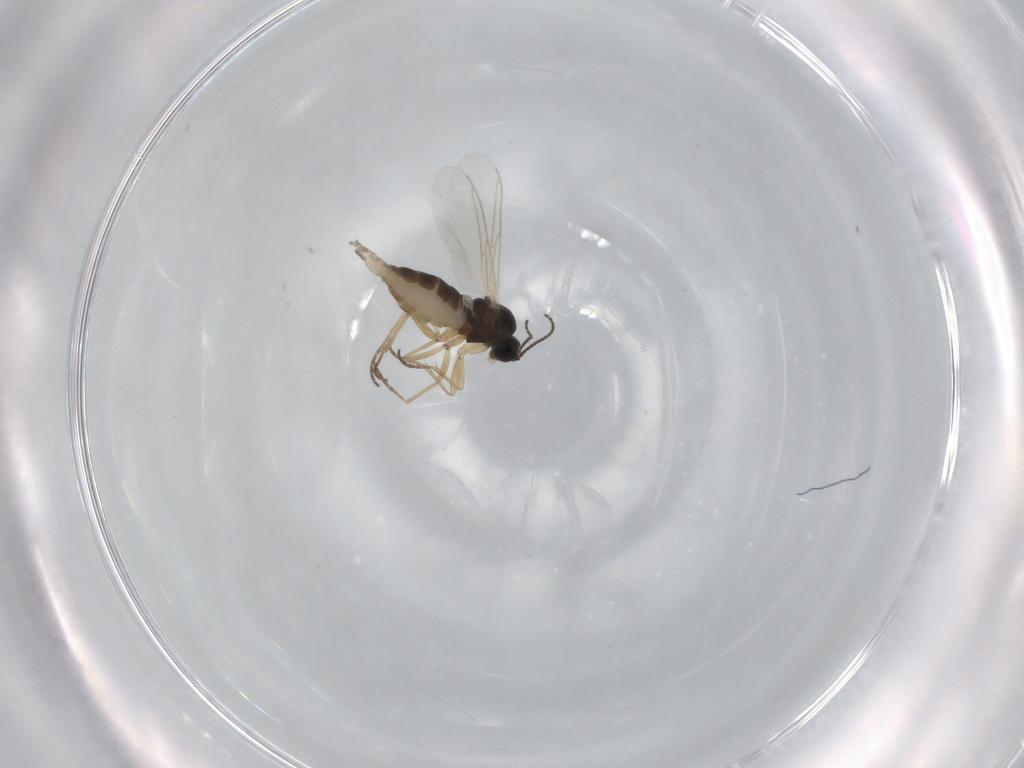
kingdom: Animalia
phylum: Arthropoda
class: Insecta
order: Diptera
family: Sciaridae
